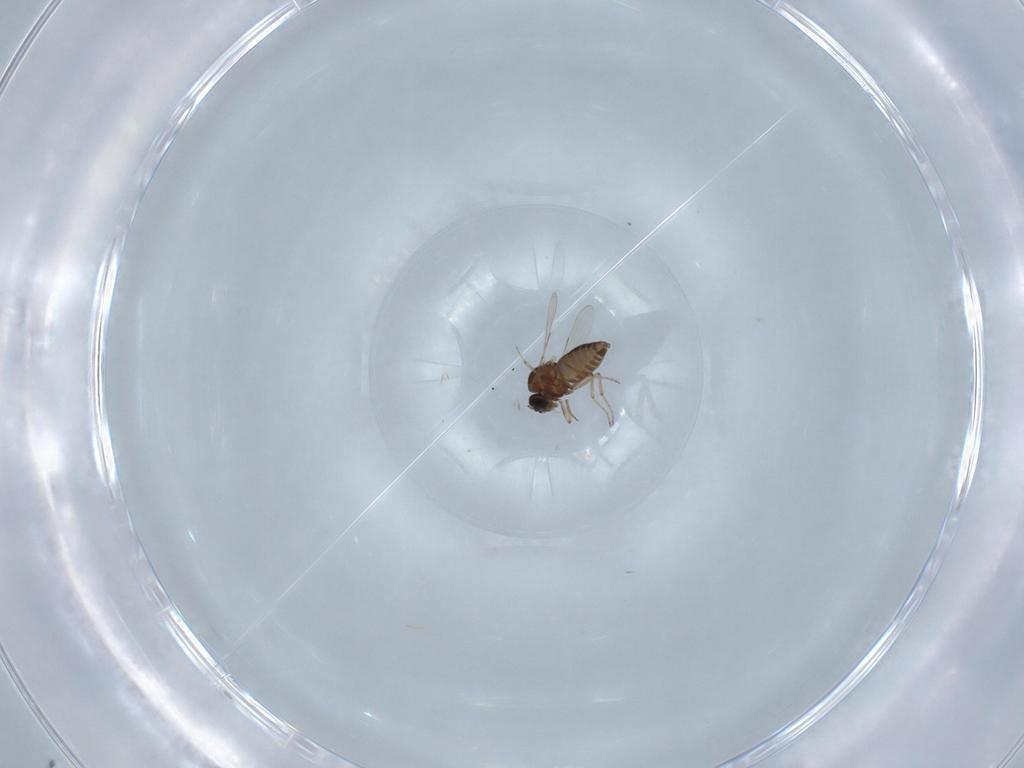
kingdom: Animalia
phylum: Arthropoda
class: Insecta
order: Diptera
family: Ceratopogonidae
